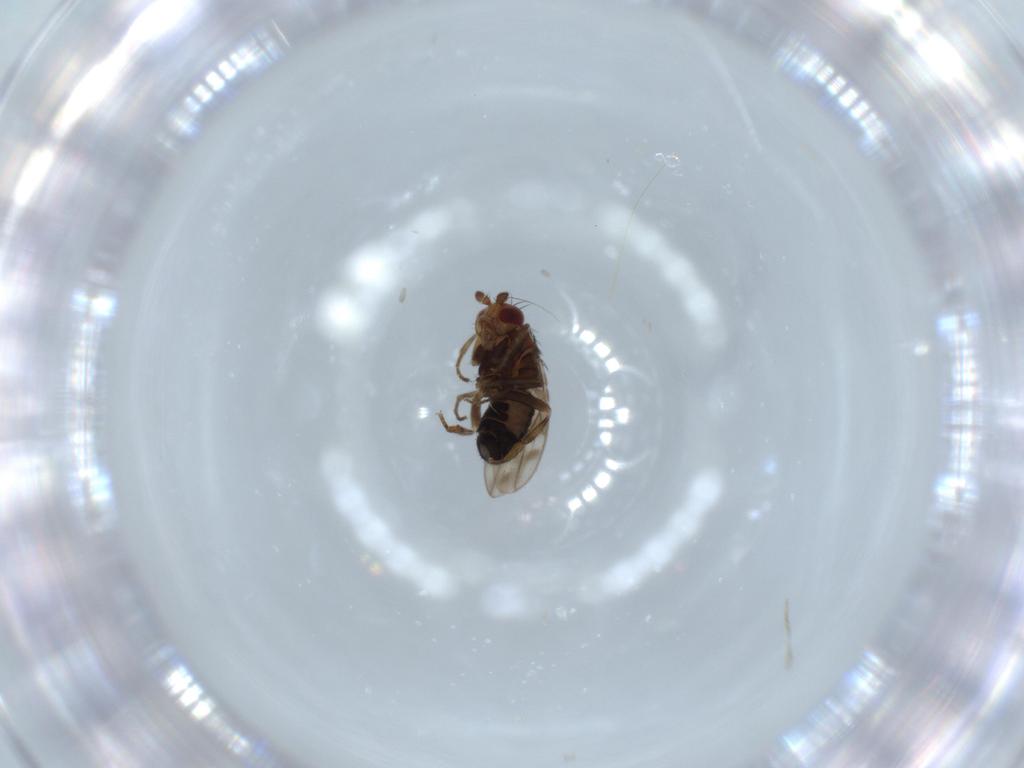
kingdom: Animalia
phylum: Arthropoda
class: Insecta
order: Diptera
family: Sphaeroceridae
